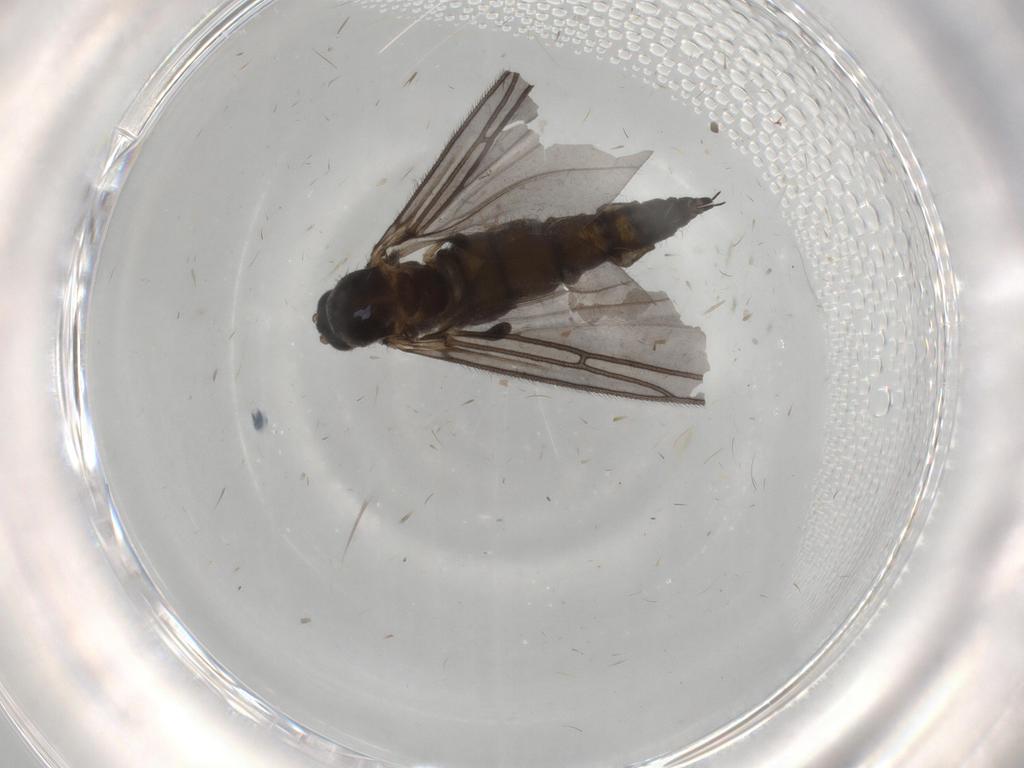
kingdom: Animalia
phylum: Arthropoda
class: Insecta
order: Diptera
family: Sciaridae
